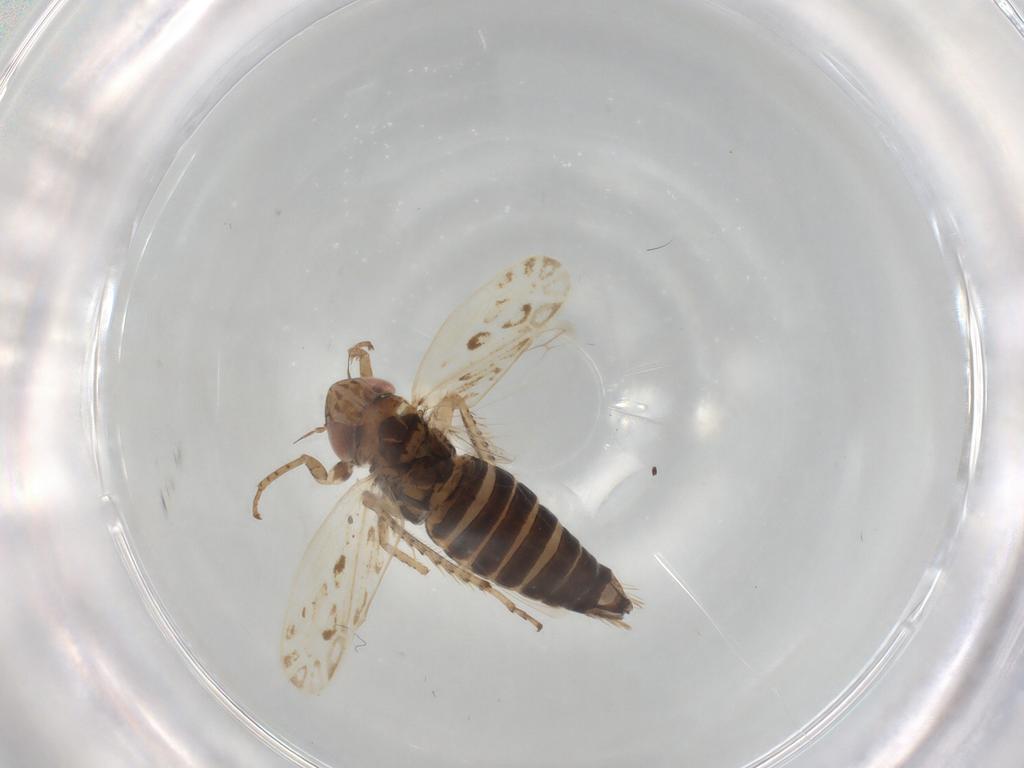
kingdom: Animalia
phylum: Arthropoda
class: Insecta
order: Hemiptera
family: Cicadellidae
